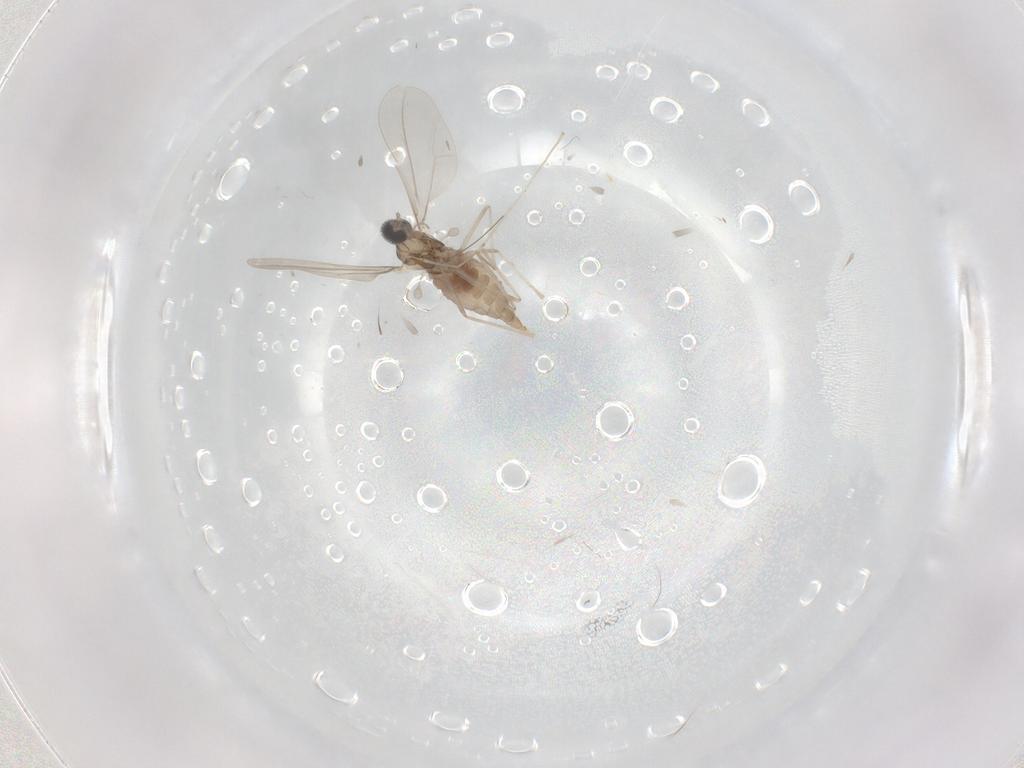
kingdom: Animalia
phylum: Arthropoda
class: Insecta
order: Diptera
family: Cecidomyiidae
